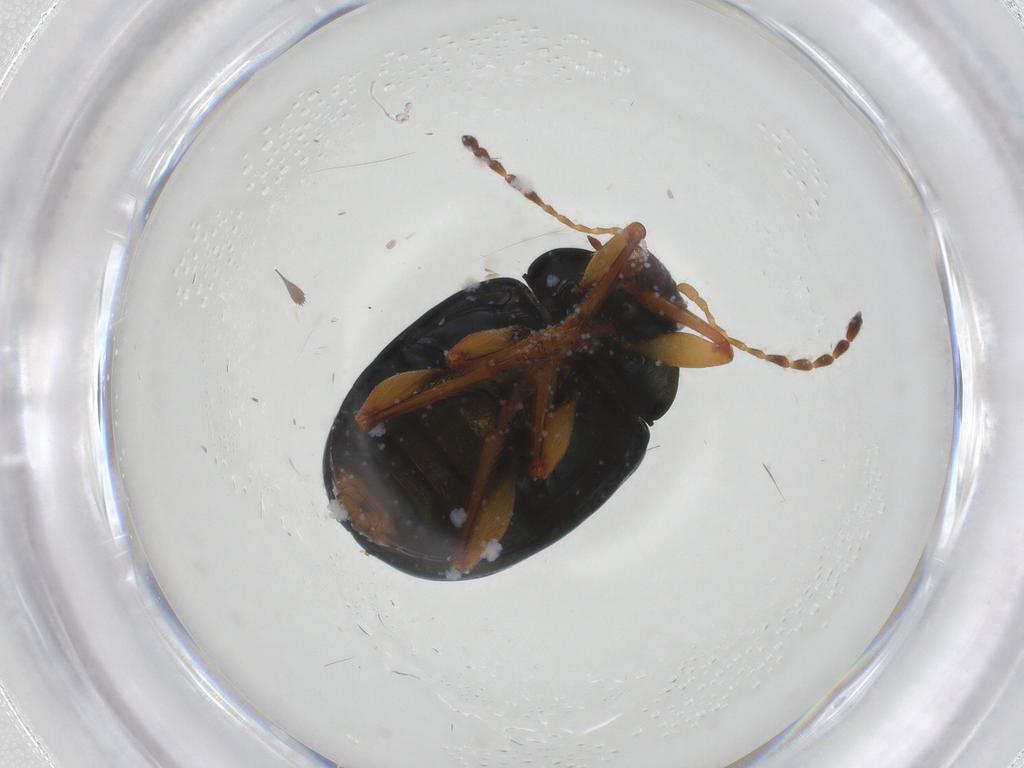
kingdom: Animalia
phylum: Arthropoda
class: Insecta
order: Coleoptera
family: Chrysomelidae
